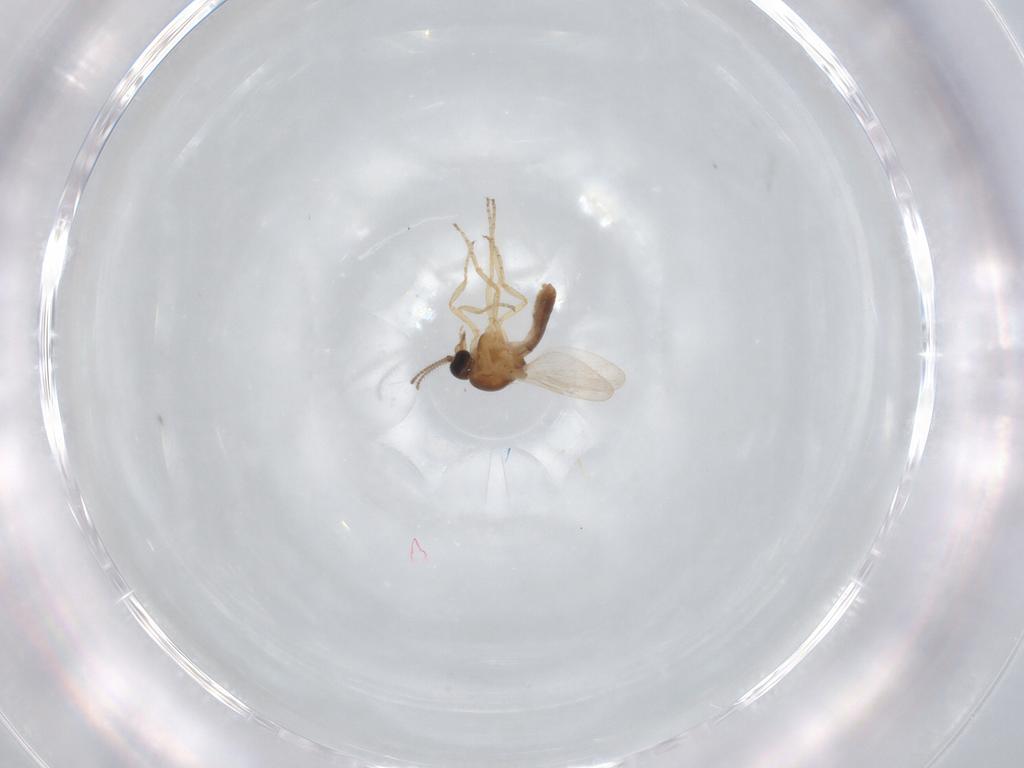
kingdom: Animalia
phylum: Arthropoda
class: Insecta
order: Diptera
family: Ceratopogonidae
